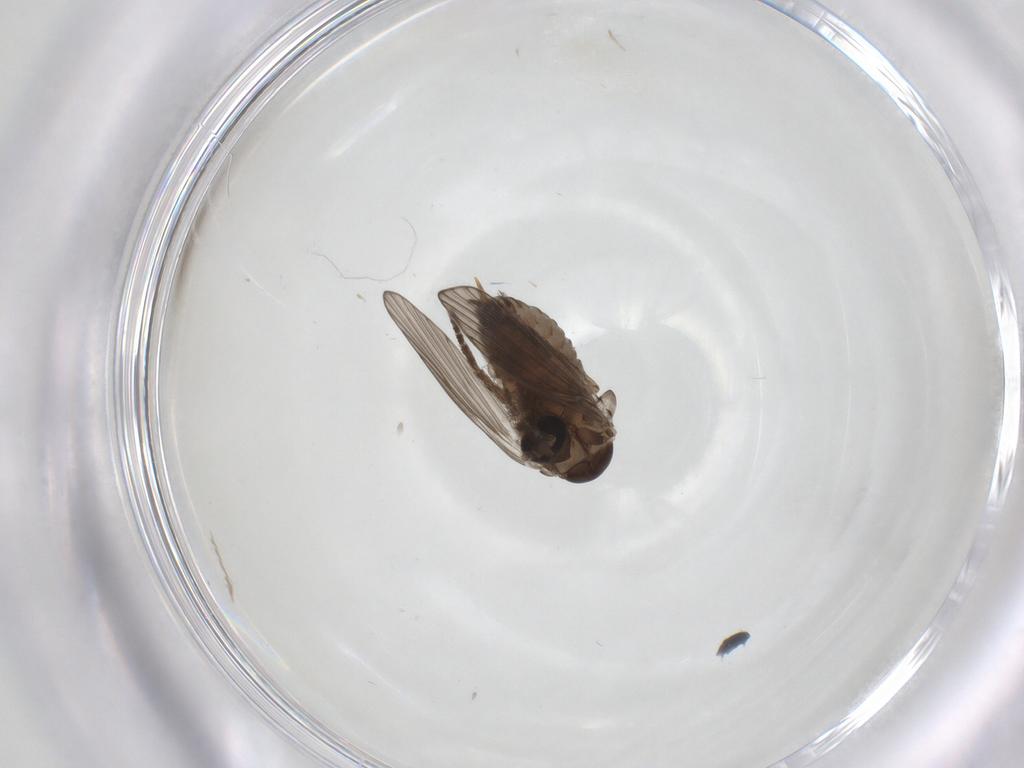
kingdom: Animalia
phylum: Arthropoda
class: Insecta
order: Diptera
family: Psychodidae
